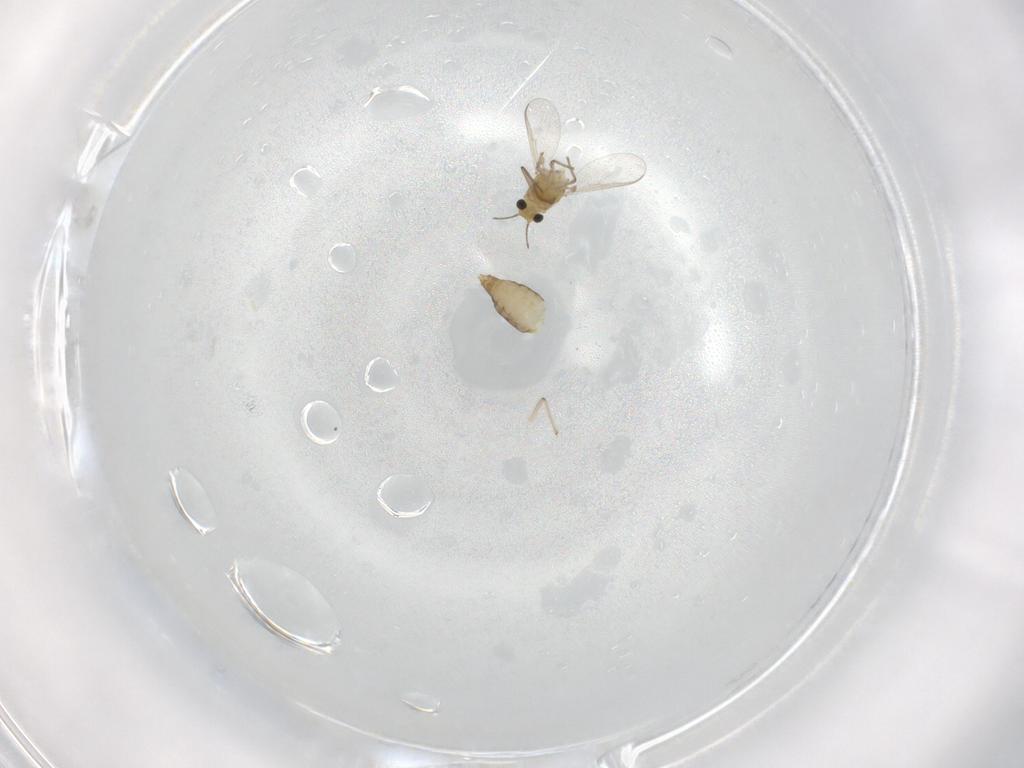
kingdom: Animalia
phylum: Arthropoda
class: Insecta
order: Diptera
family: Chironomidae
